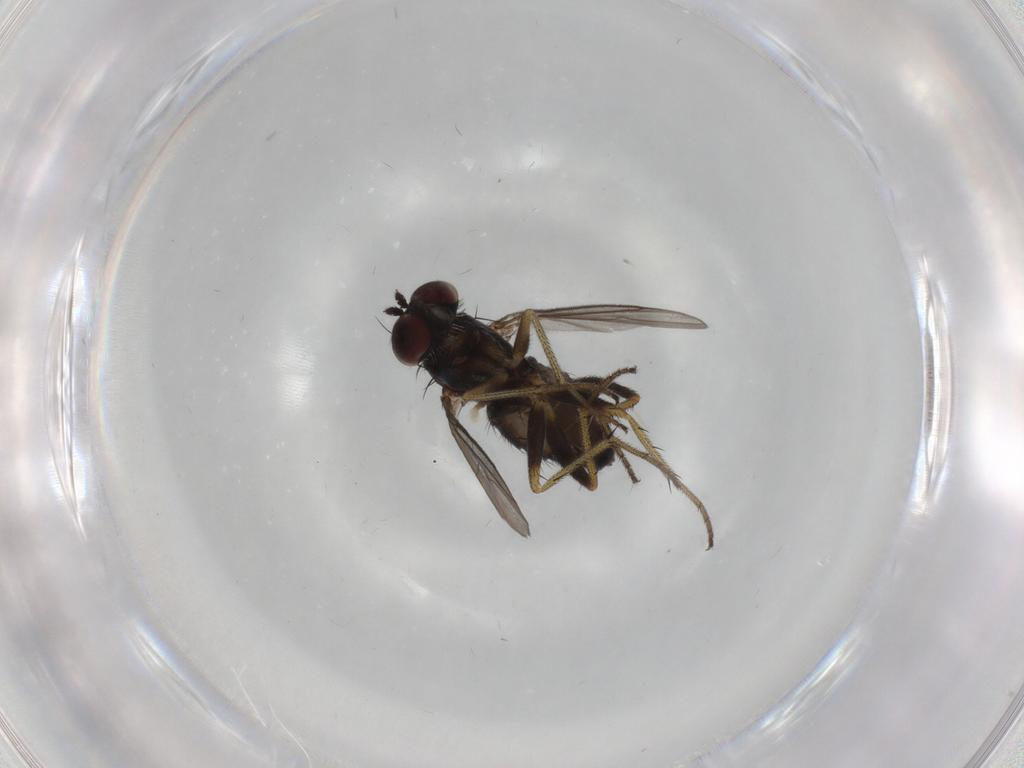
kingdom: Animalia
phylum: Arthropoda
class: Insecta
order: Diptera
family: Dolichopodidae
